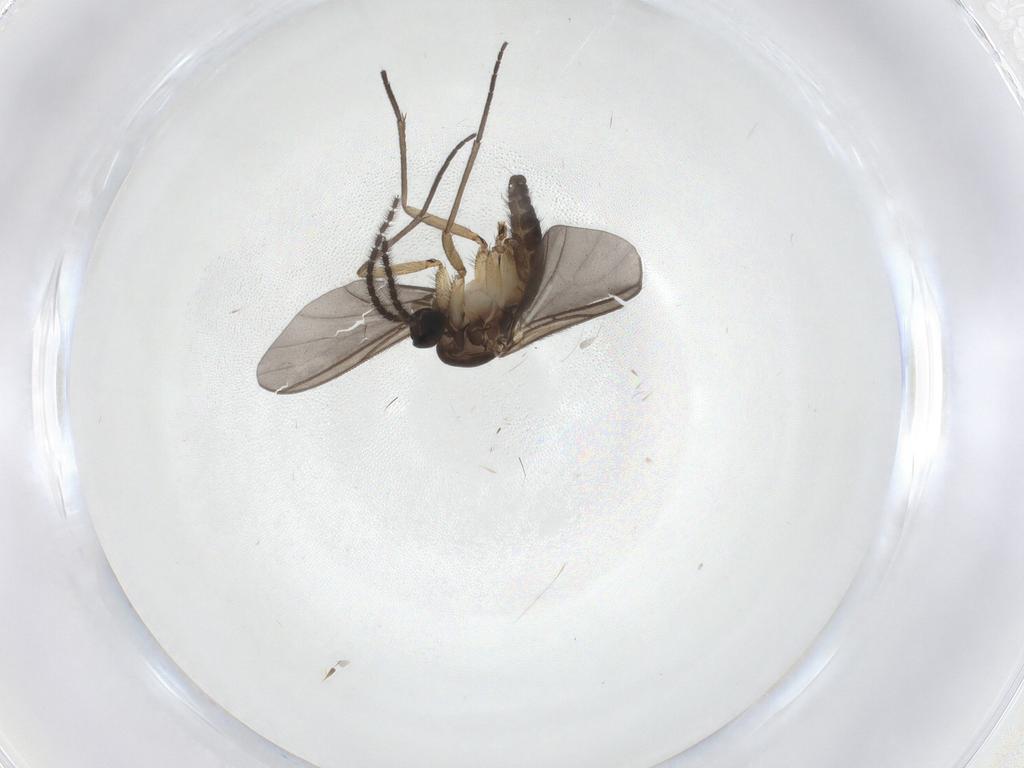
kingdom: Animalia
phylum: Arthropoda
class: Insecta
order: Diptera
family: Sciaridae
